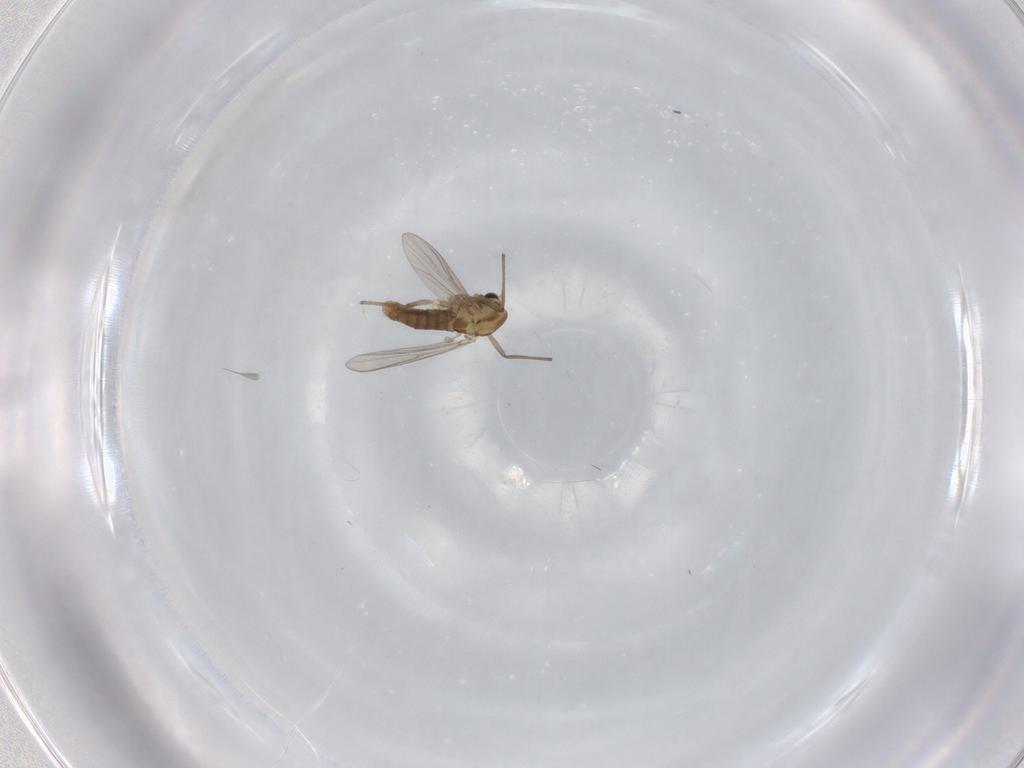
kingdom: Animalia
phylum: Arthropoda
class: Insecta
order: Diptera
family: Chironomidae
